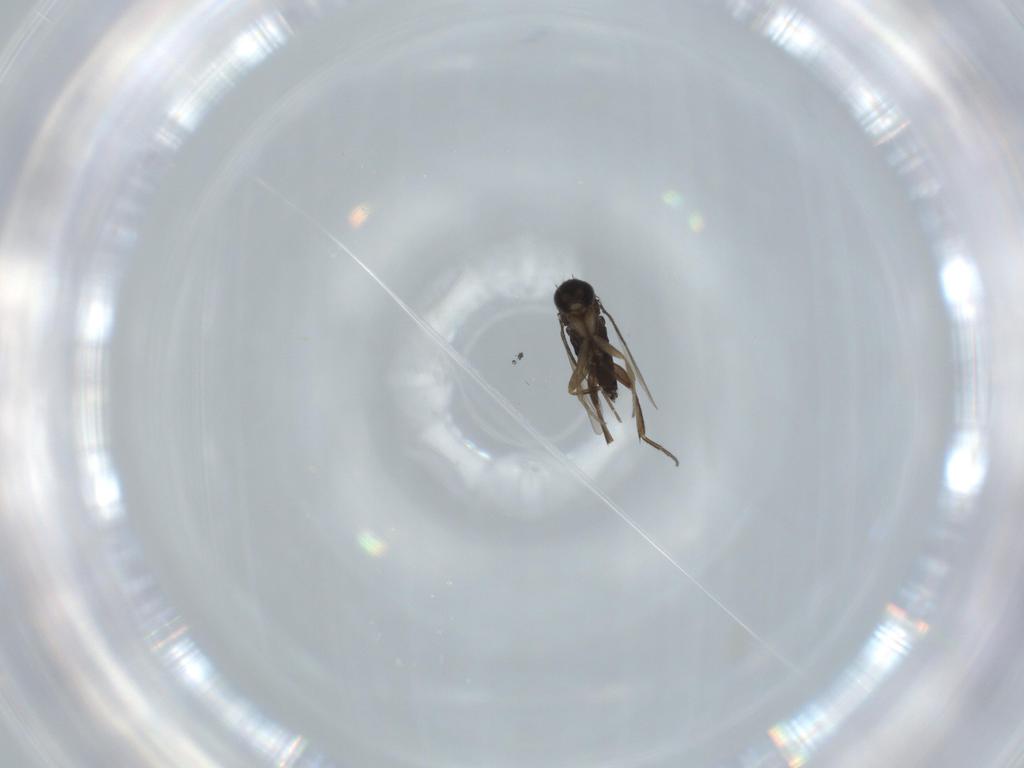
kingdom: Animalia
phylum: Arthropoda
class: Insecta
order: Diptera
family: Phoridae
